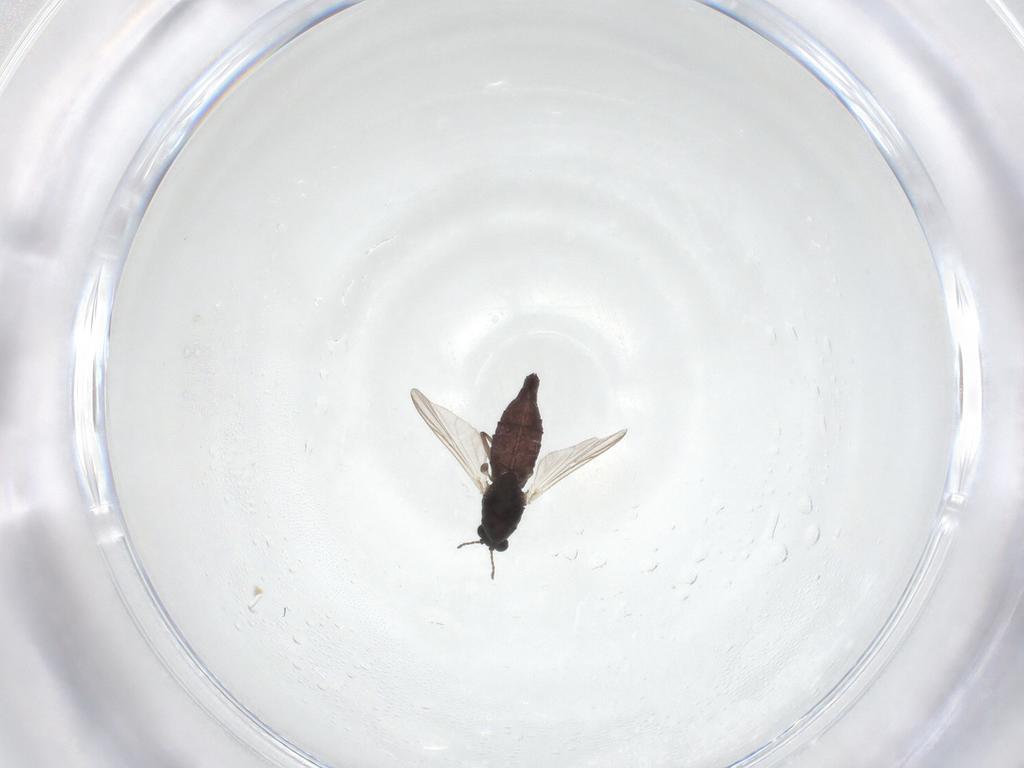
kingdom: Animalia
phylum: Arthropoda
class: Insecta
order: Diptera
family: Chironomidae
